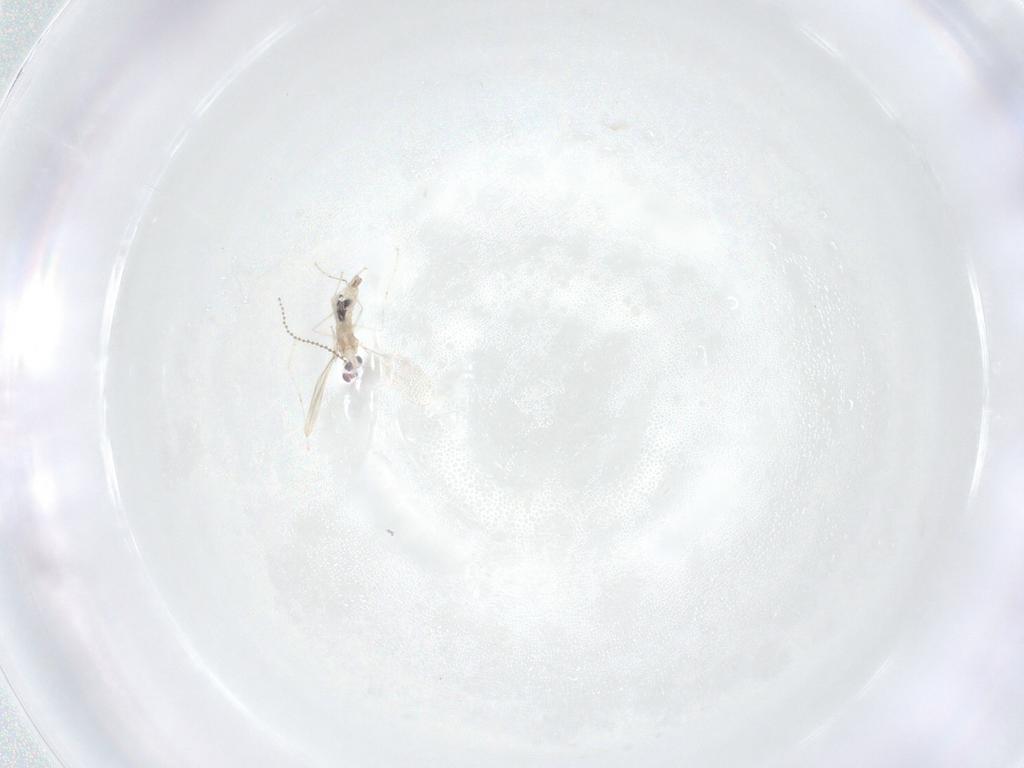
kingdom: Animalia
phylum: Arthropoda
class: Insecta
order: Diptera
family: Cecidomyiidae
